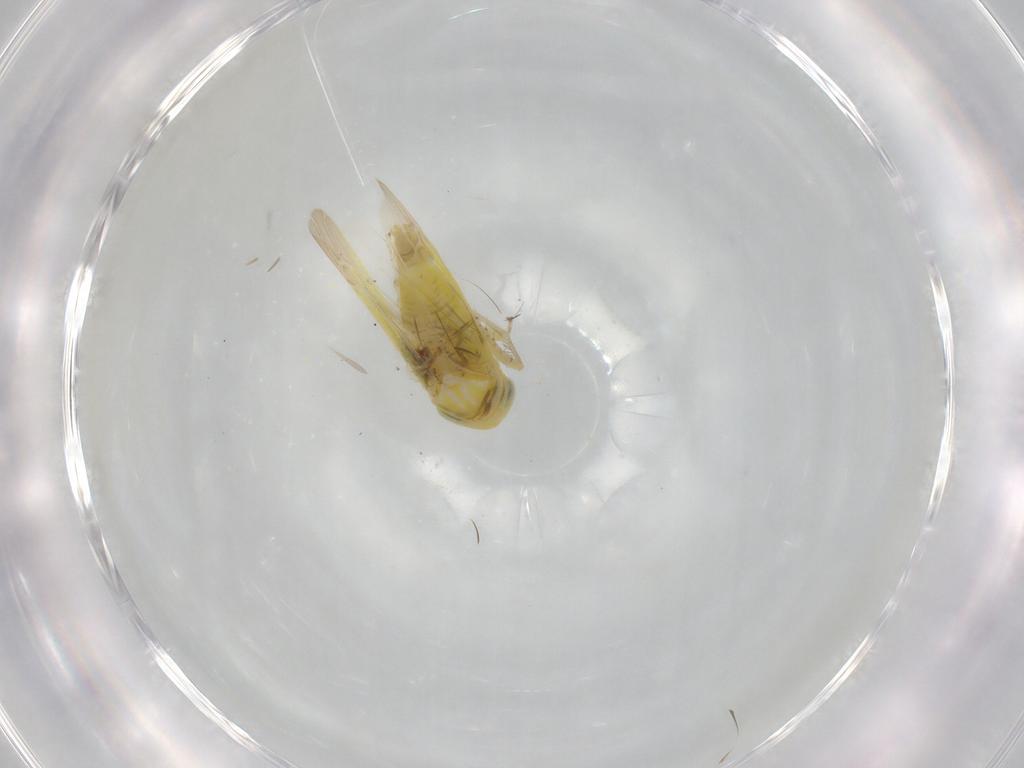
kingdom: Animalia
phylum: Arthropoda
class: Insecta
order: Hemiptera
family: Cicadellidae
